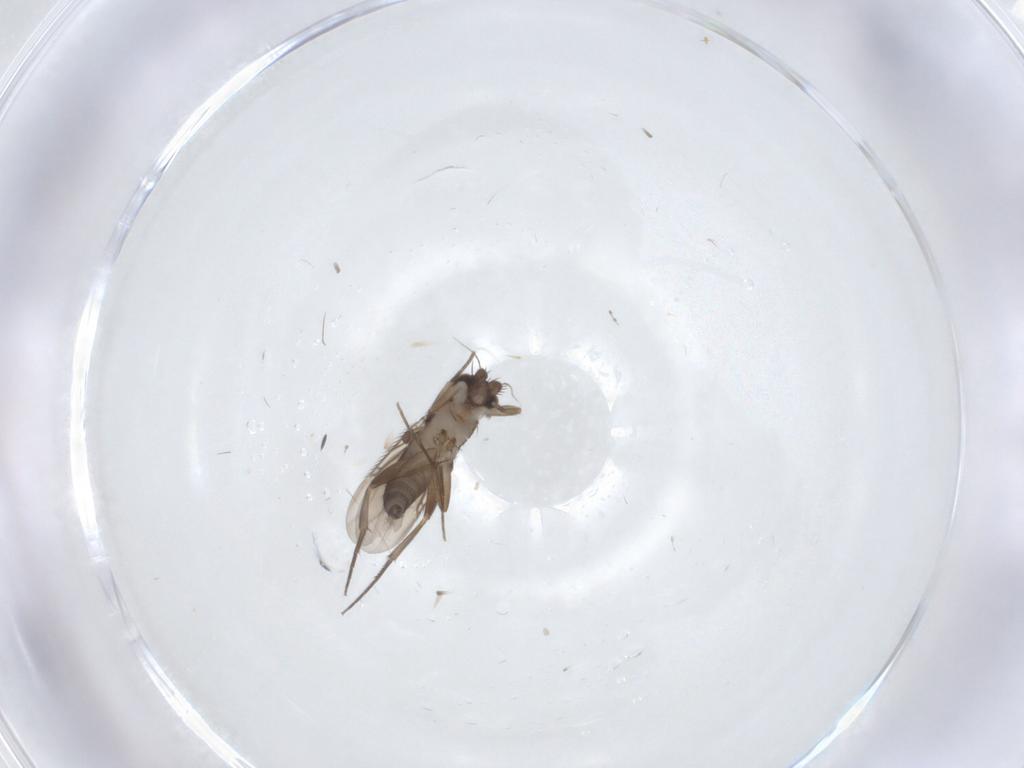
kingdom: Animalia
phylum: Arthropoda
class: Insecta
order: Diptera
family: Phoridae
